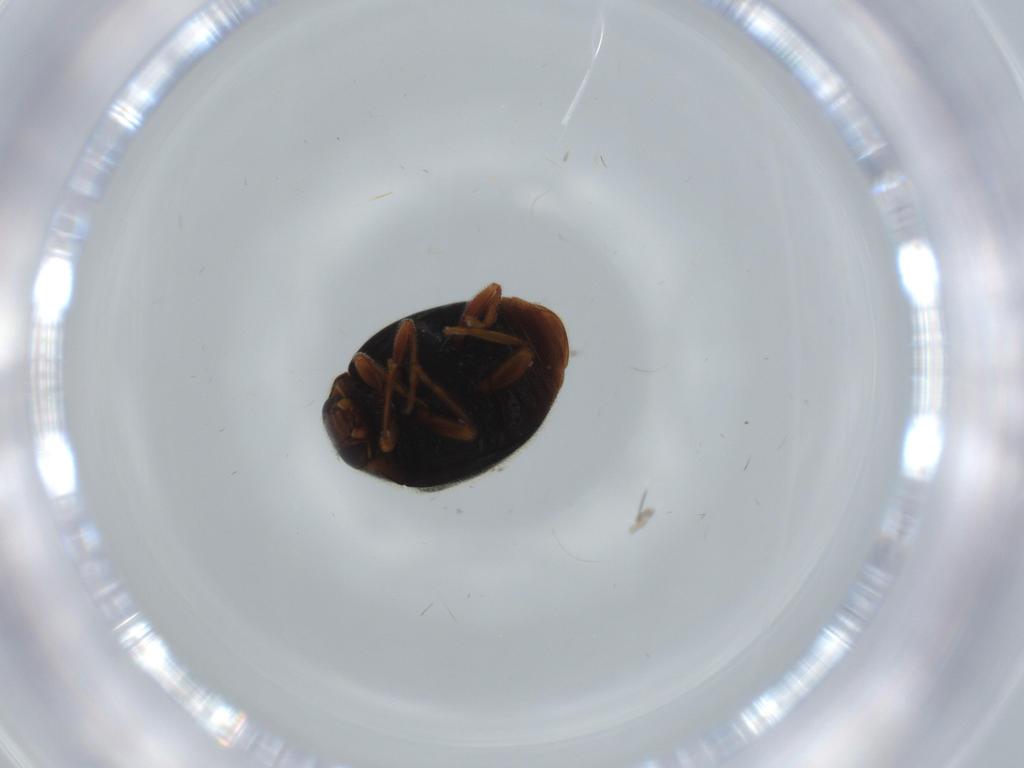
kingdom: Animalia
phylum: Arthropoda
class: Insecta
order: Coleoptera
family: Coccinellidae
